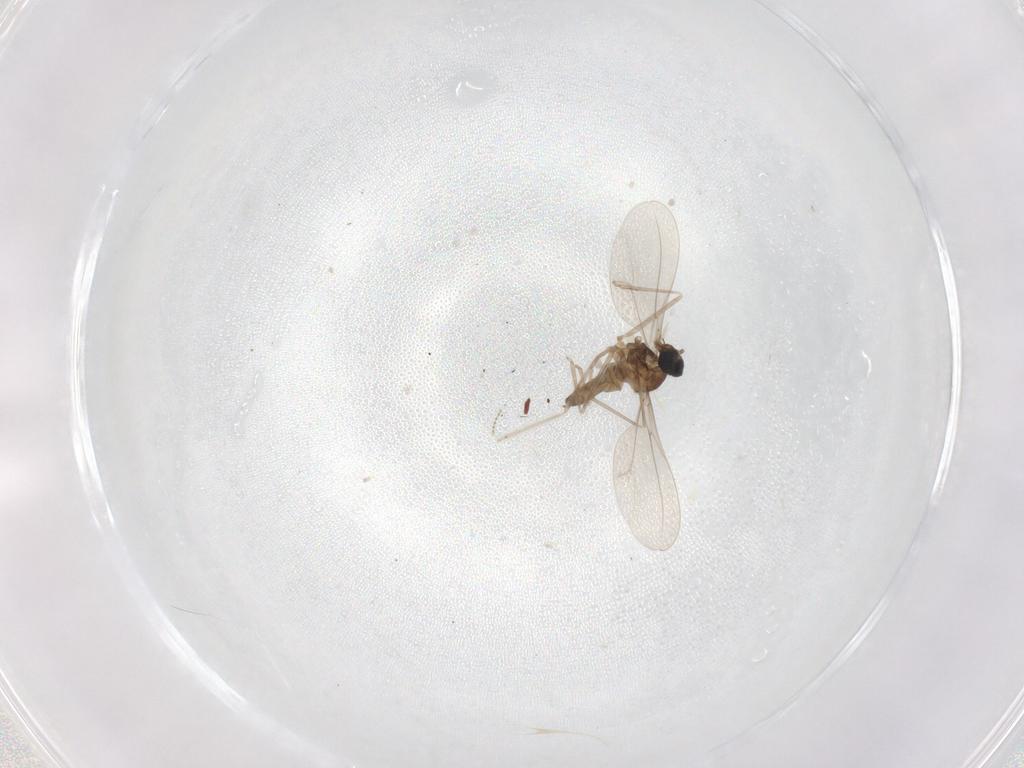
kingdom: Animalia
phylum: Arthropoda
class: Insecta
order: Diptera
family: Cecidomyiidae
